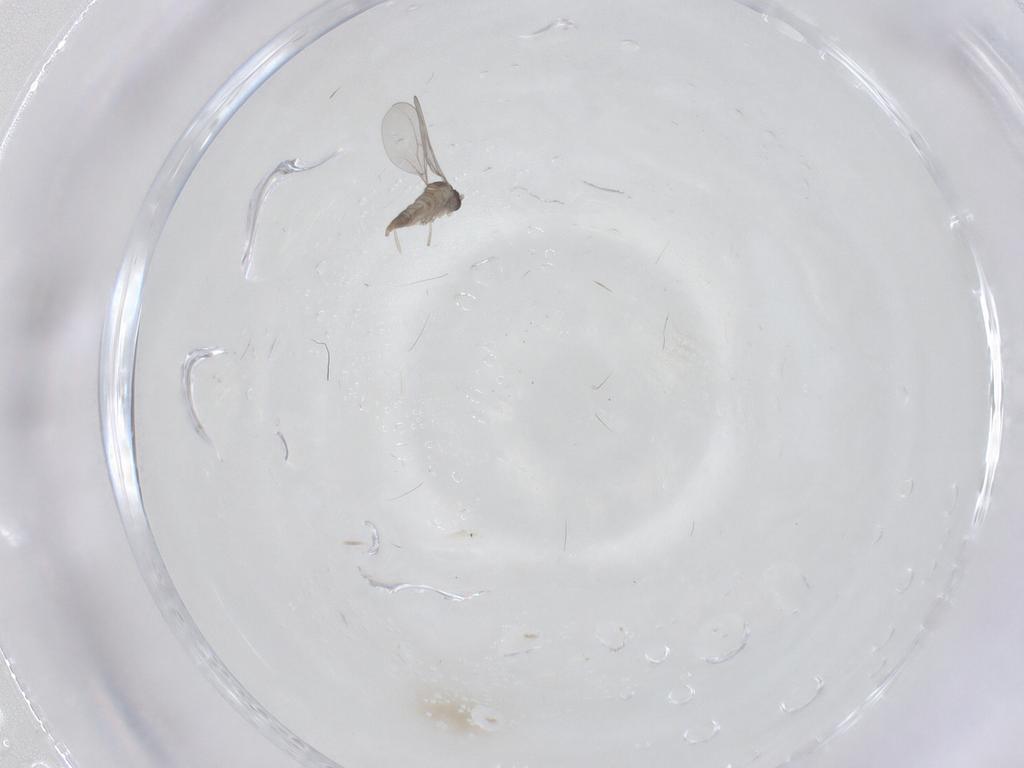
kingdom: Animalia
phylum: Arthropoda
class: Insecta
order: Diptera
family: Cecidomyiidae
